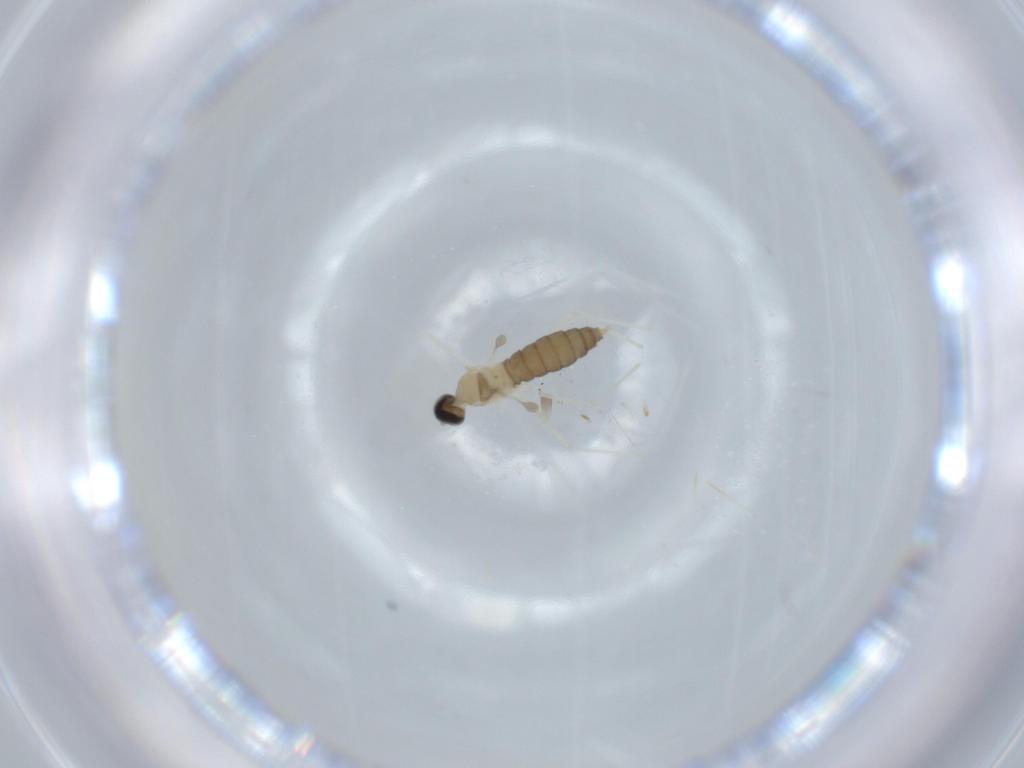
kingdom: Animalia
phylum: Arthropoda
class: Insecta
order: Diptera
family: Cecidomyiidae
